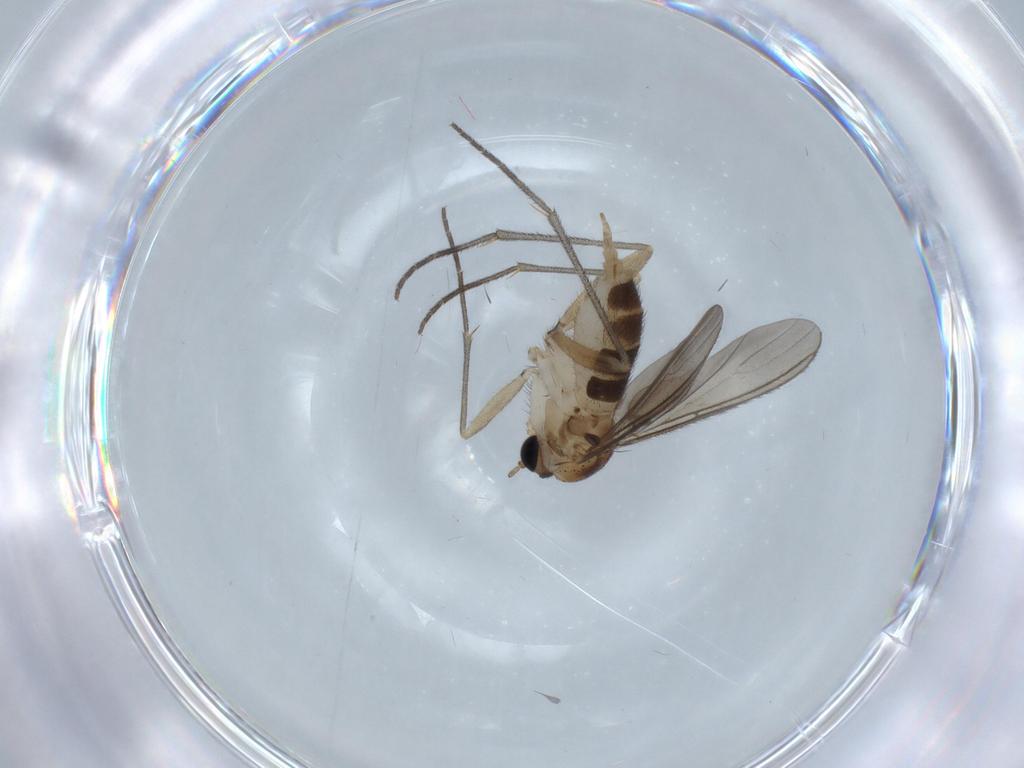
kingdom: Animalia
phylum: Arthropoda
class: Insecta
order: Diptera
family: Sciaridae
